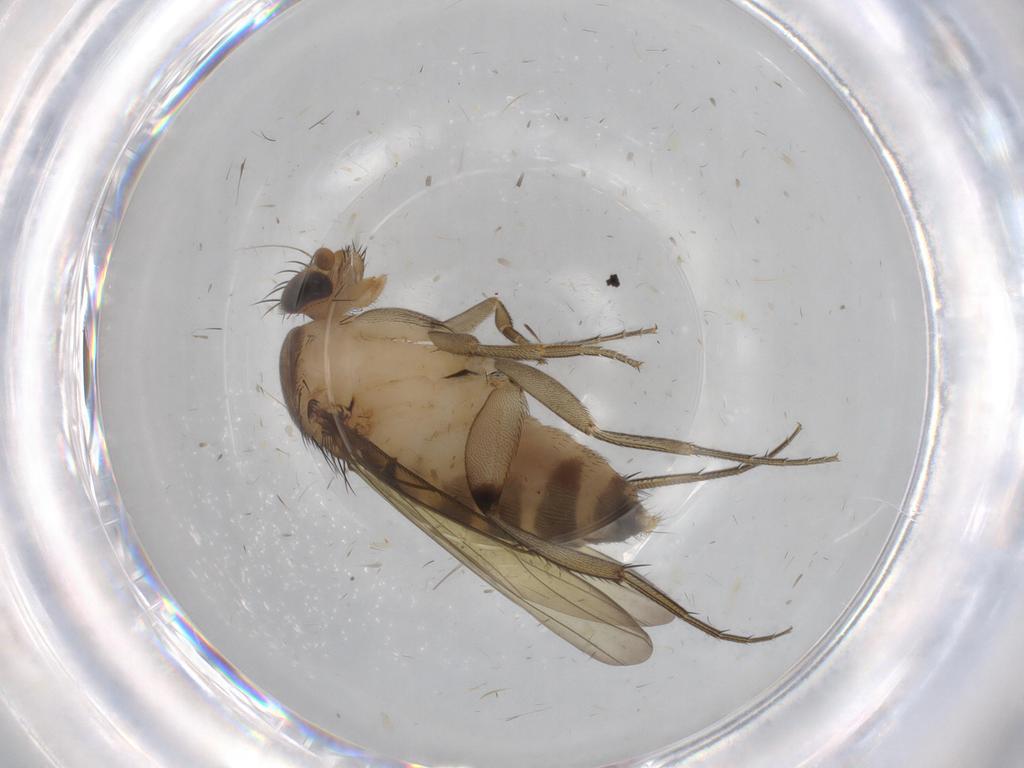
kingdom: Animalia
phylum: Arthropoda
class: Insecta
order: Diptera
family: Phoridae
